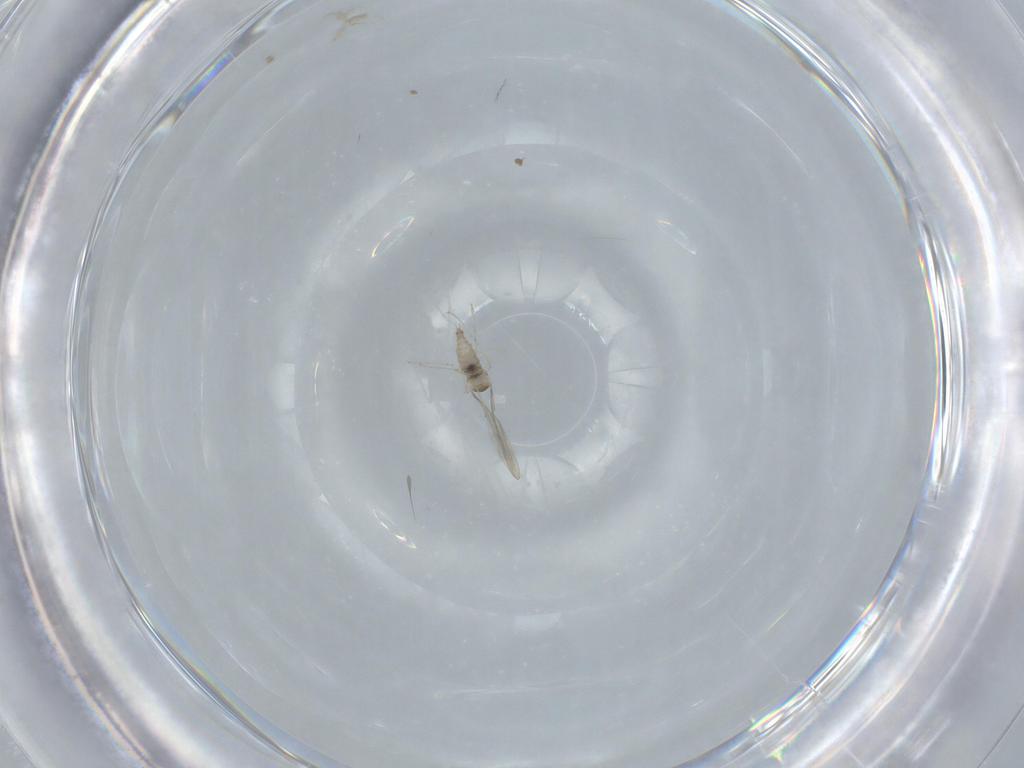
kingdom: Animalia
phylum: Arthropoda
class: Insecta
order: Diptera
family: Cecidomyiidae
